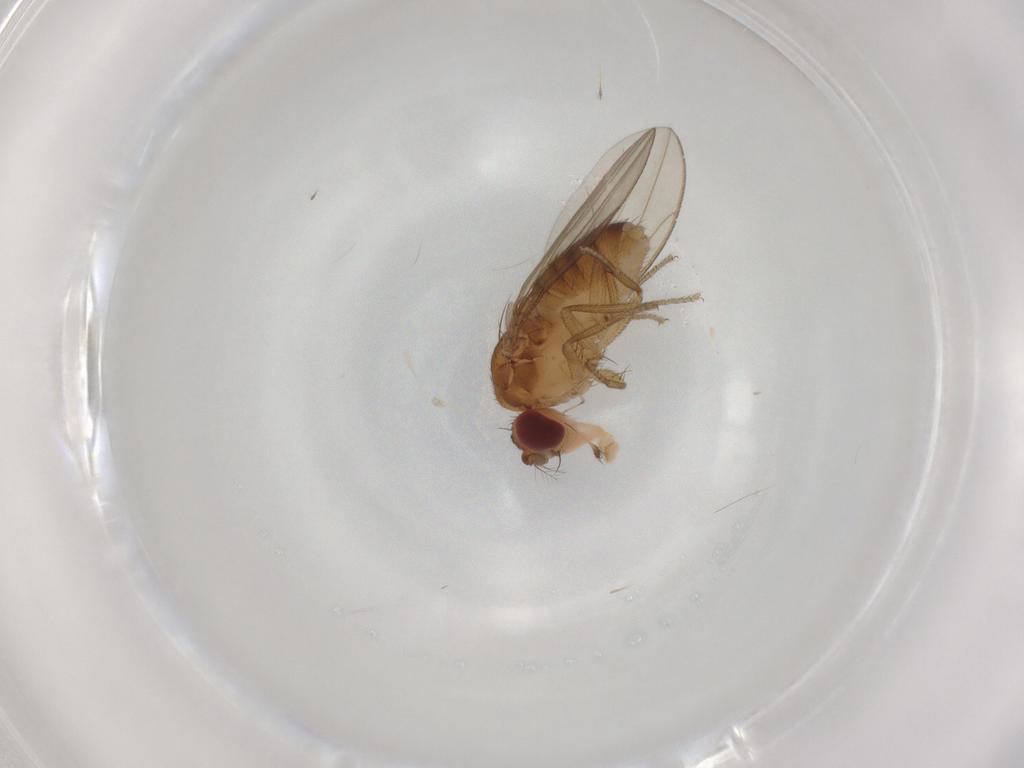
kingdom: Animalia
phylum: Arthropoda
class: Insecta
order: Diptera
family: Drosophilidae
